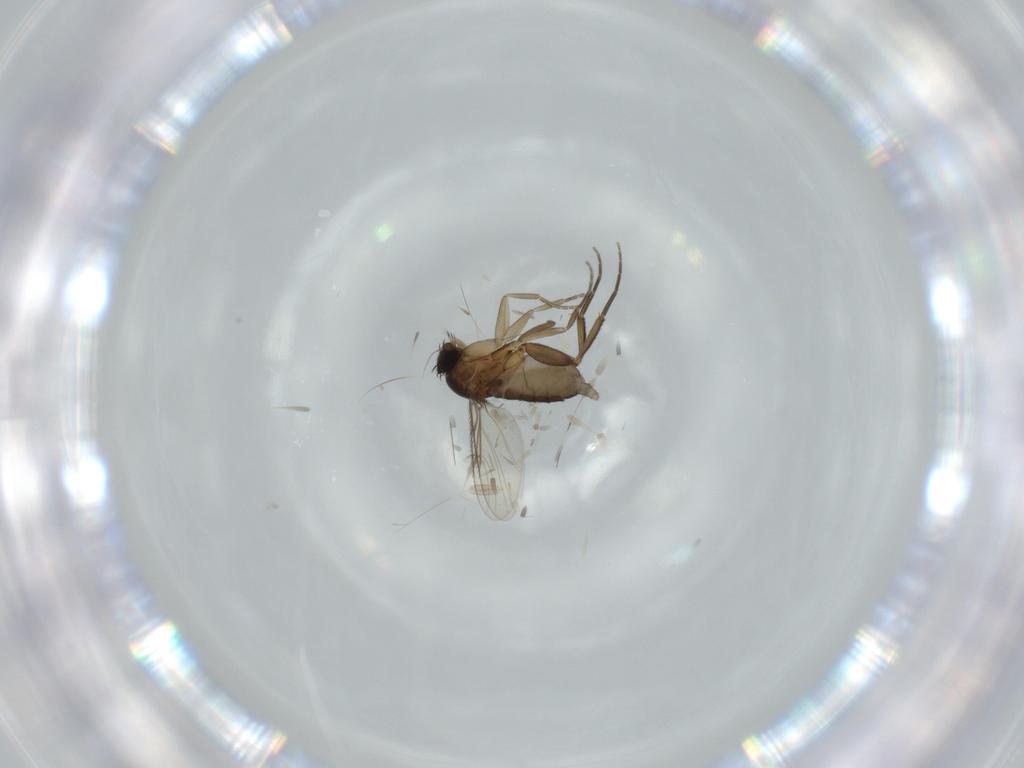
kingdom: Animalia
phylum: Arthropoda
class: Insecta
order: Diptera
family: Phoridae
